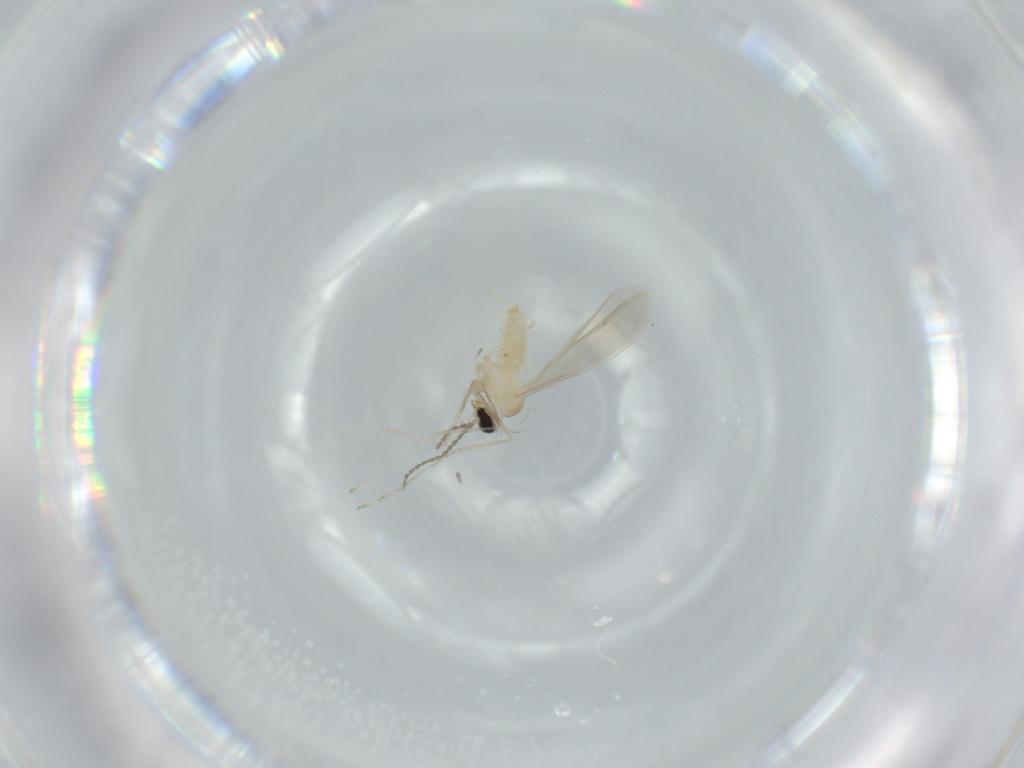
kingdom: Animalia
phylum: Arthropoda
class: Insecta
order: Diptera
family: Cecidomyiidae
